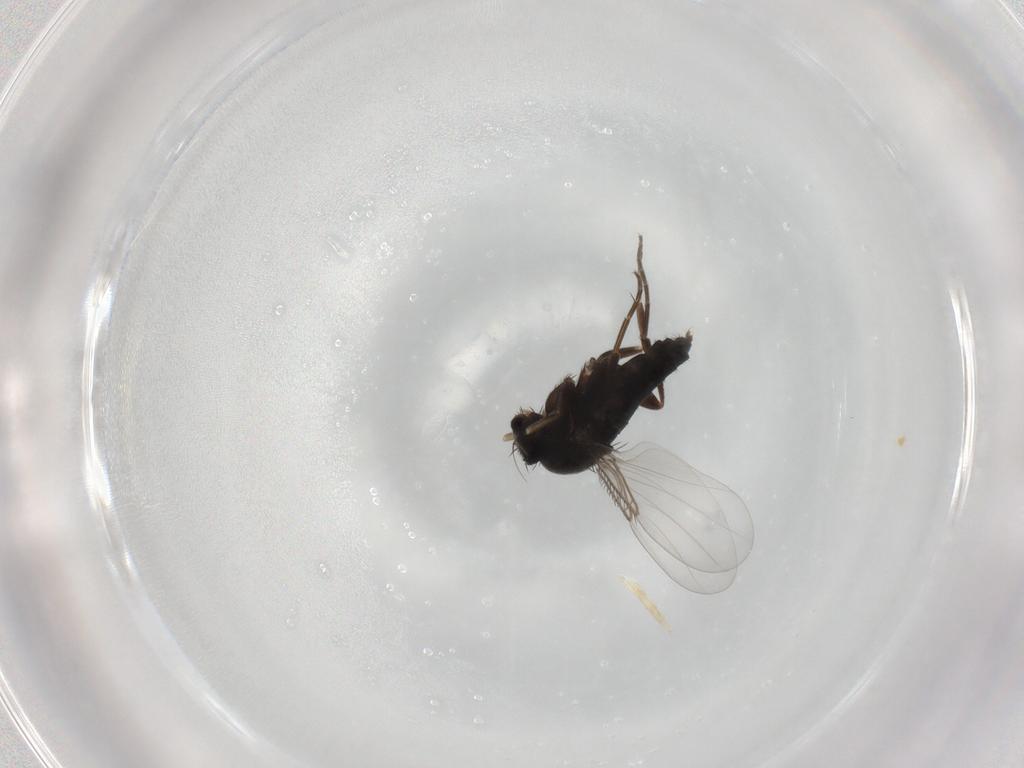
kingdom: Animalia
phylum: Arthropoda
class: Insecta
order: Diptera
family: Phoridae
